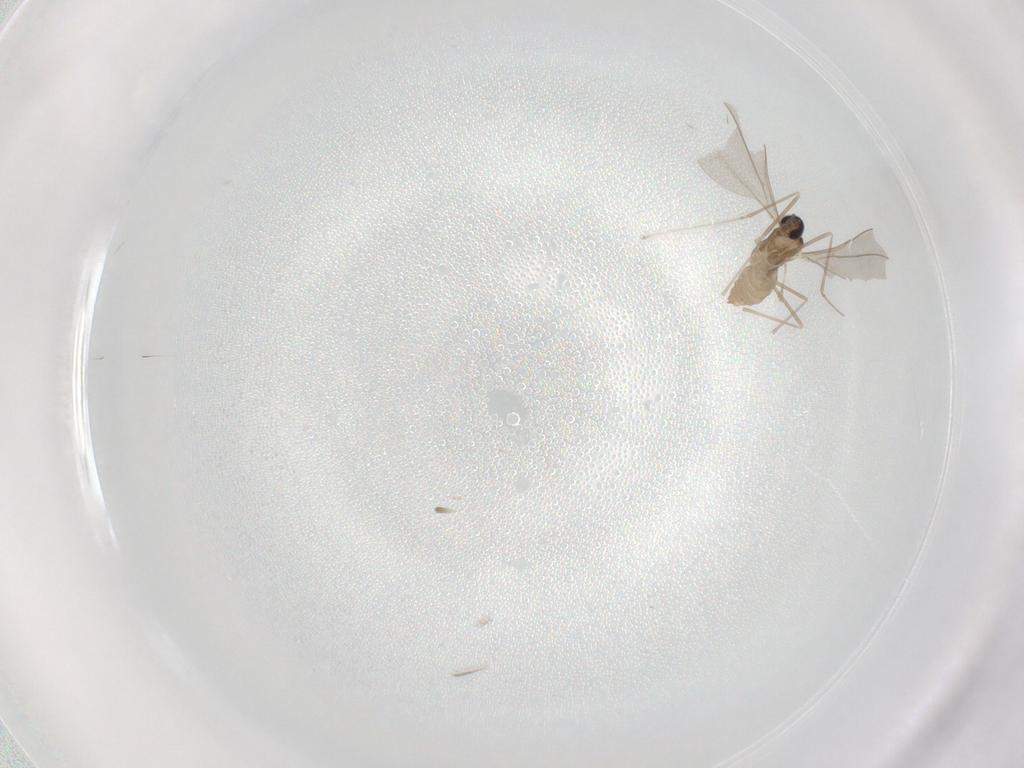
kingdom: Animalia
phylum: Arthropoda
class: Insecta
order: Diptera
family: Cecidomyiidae
